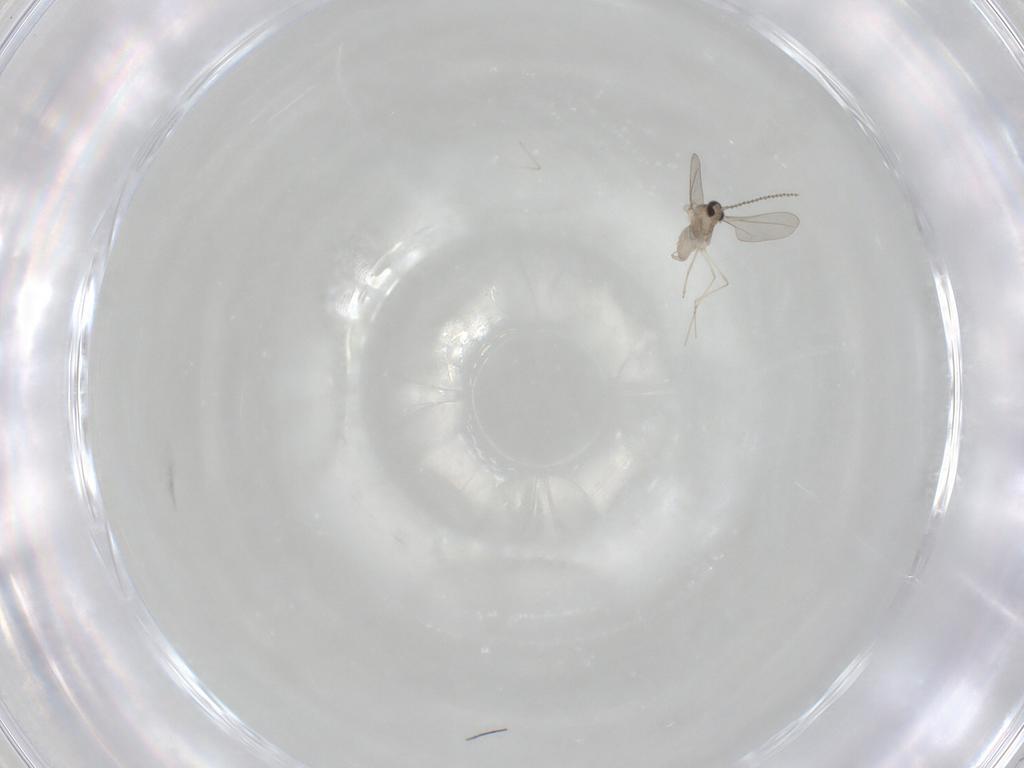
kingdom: Animalia
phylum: Arthropoda
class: Insecta
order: Diptera
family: Cecidomyiidae
